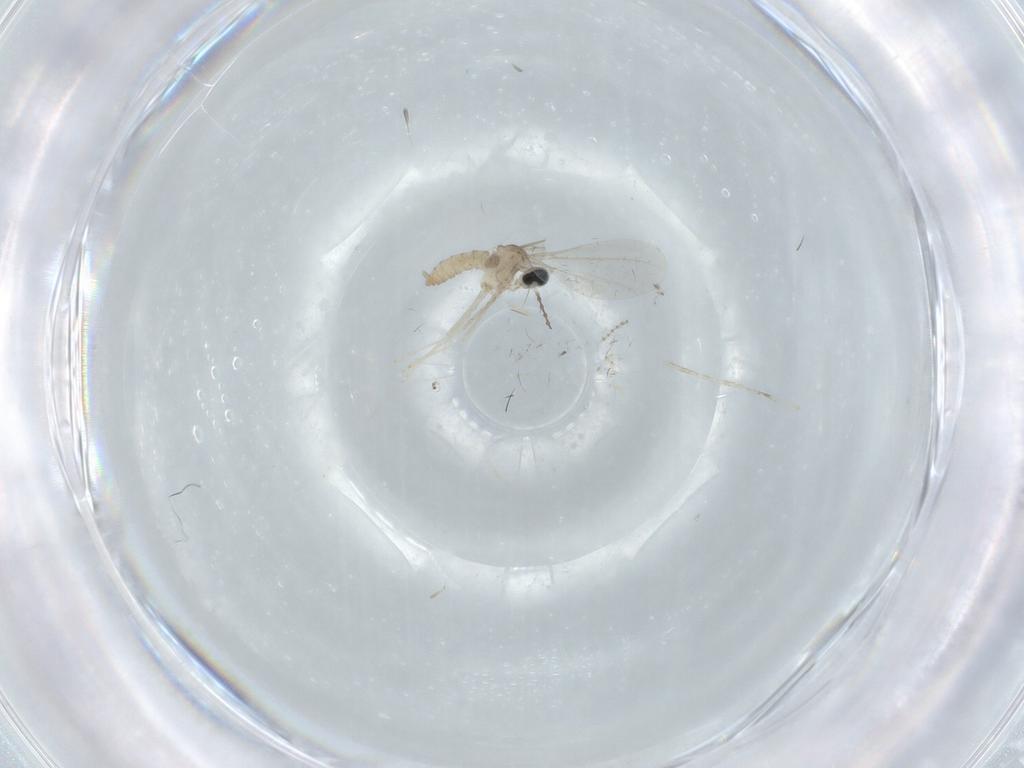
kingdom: Animalia
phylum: Arthropoda
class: Insecta
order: Diptera
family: Cecidomyiidae
